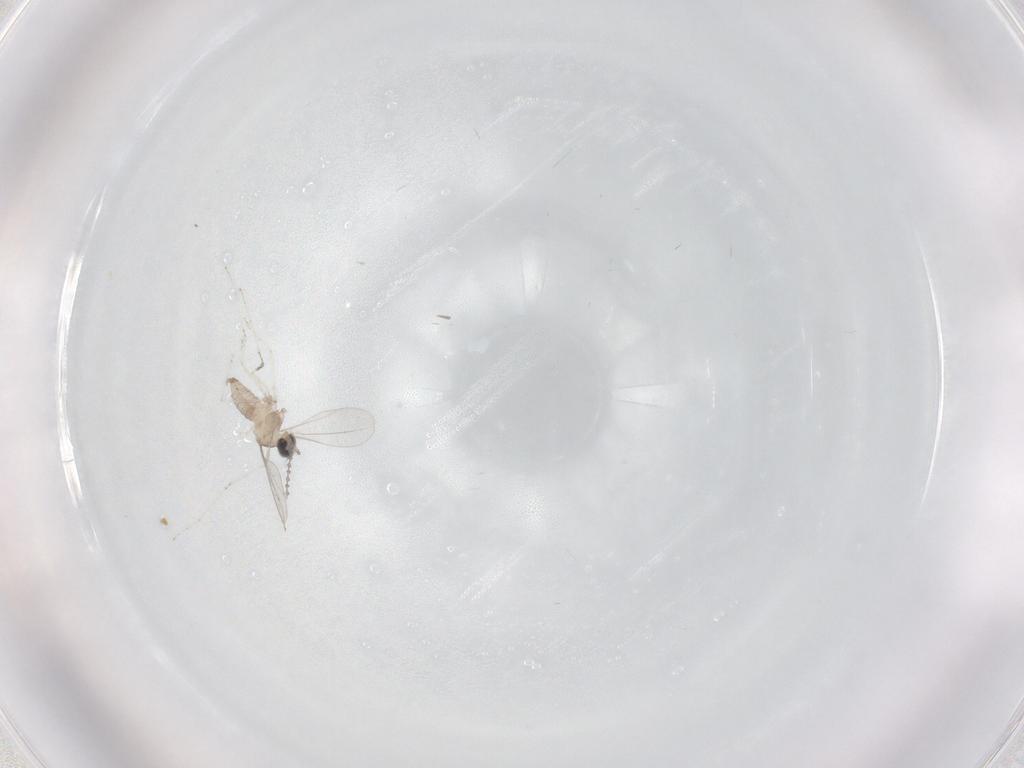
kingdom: Animalia
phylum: Arthropoda
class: Insecta
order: Diptera
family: Cecidomyiidae
